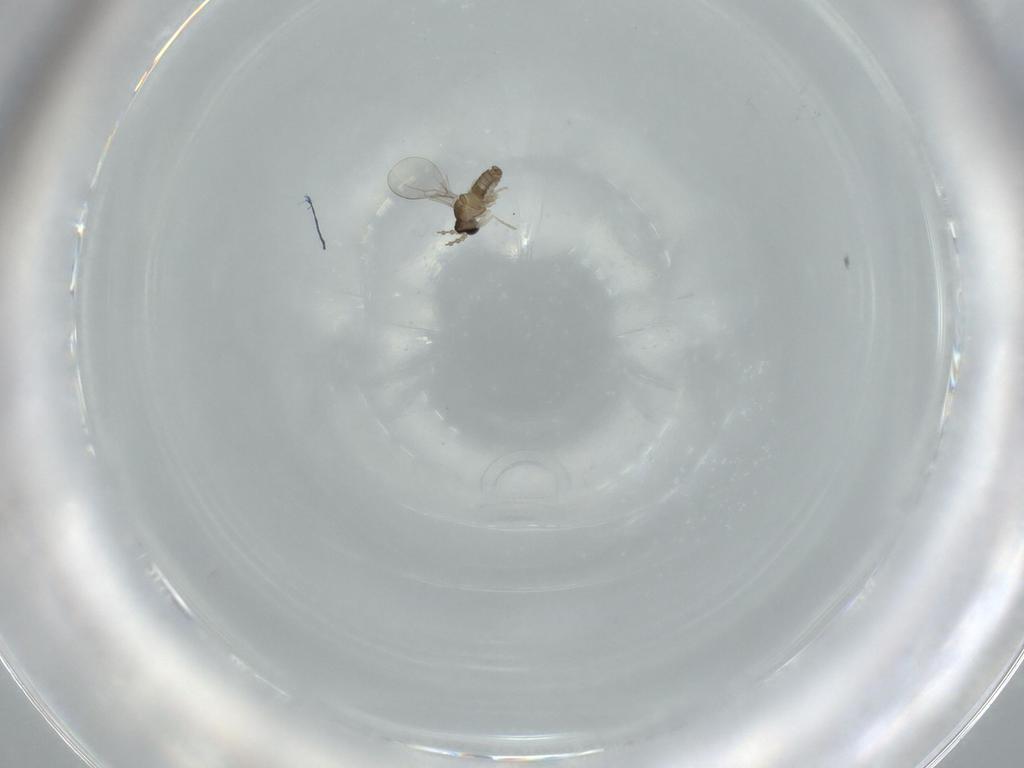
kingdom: Animalia
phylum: Arthropoda
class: Insecta
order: Diptera
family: Cecidomyiidae
